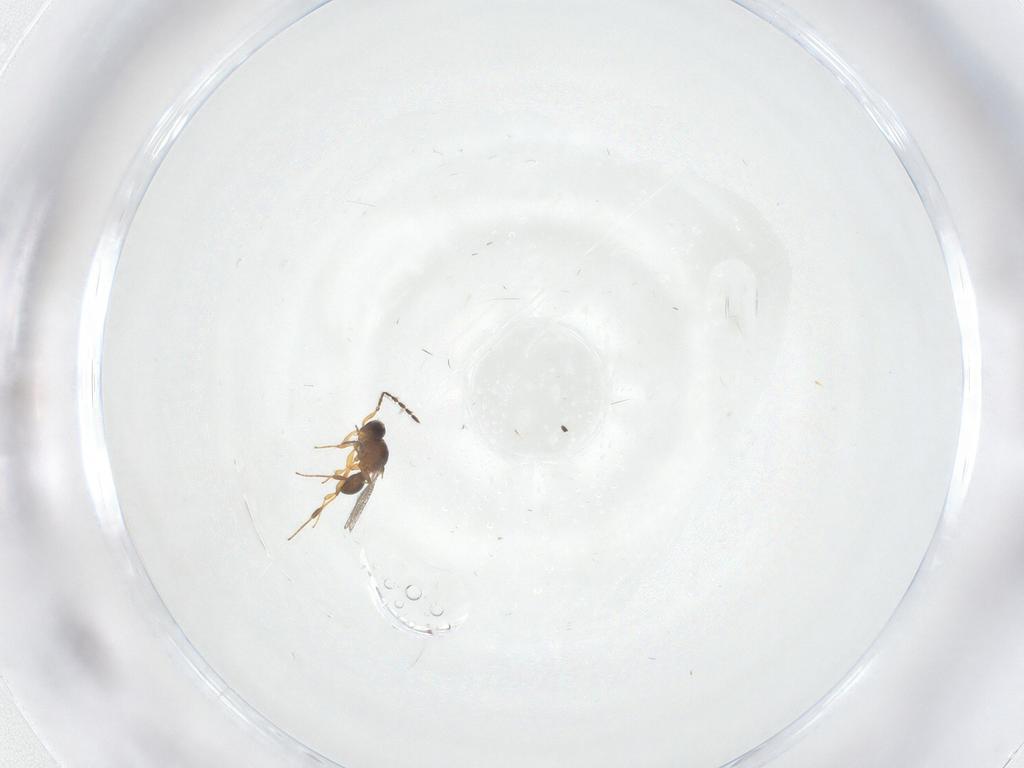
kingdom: Animalia
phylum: Arthropoda
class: Insecta
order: Hymenoptera
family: Platygastridae
